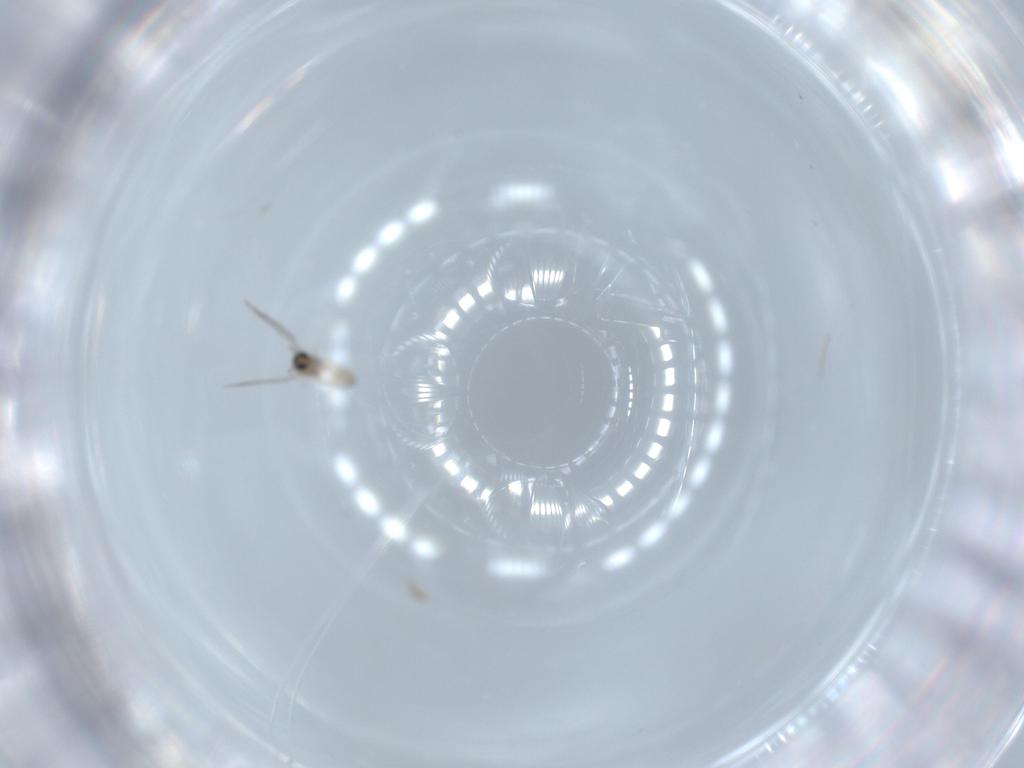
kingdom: Animalia
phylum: Arthropoda
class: Insecta
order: Diptera
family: Cecidomyiidae
